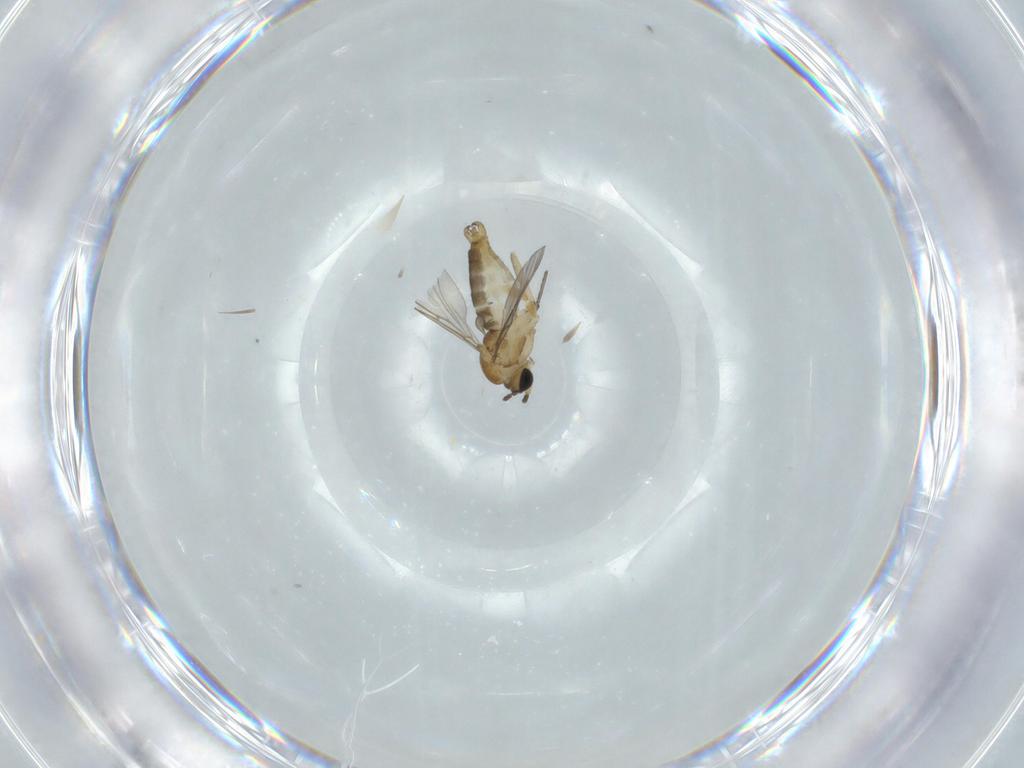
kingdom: Animalia
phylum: Arthropoda
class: Insecta
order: Diptera
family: Sciaridae
